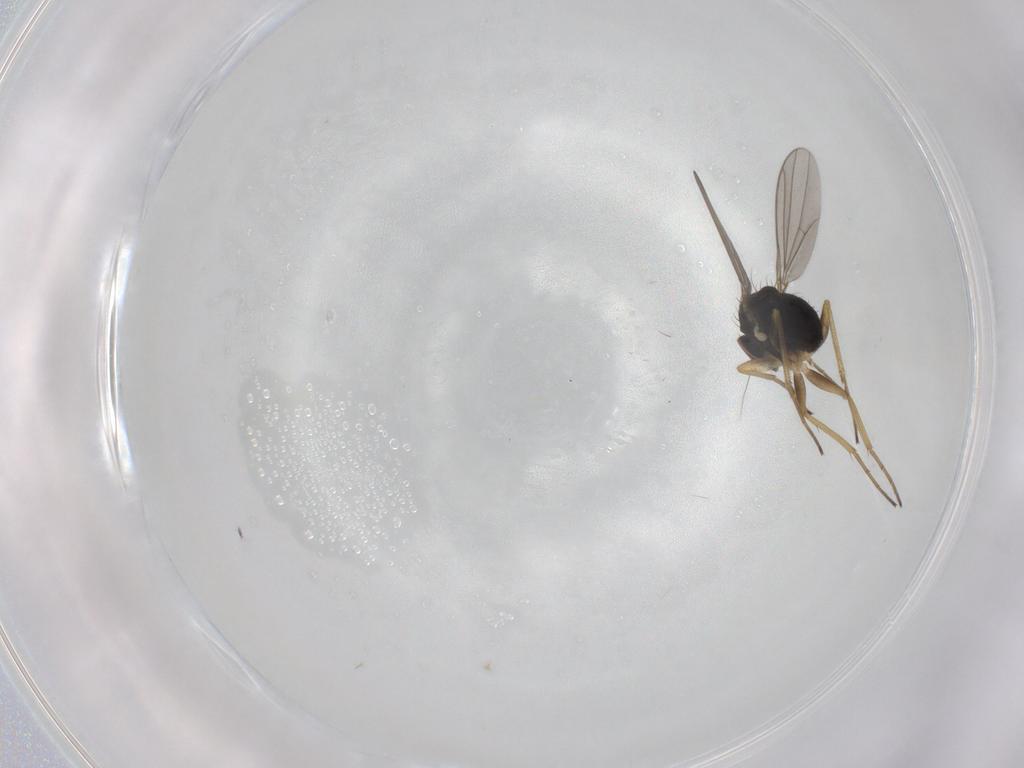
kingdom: Animalia
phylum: Arthropoda
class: Insecta
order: Diptera
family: Dolichopodidae
